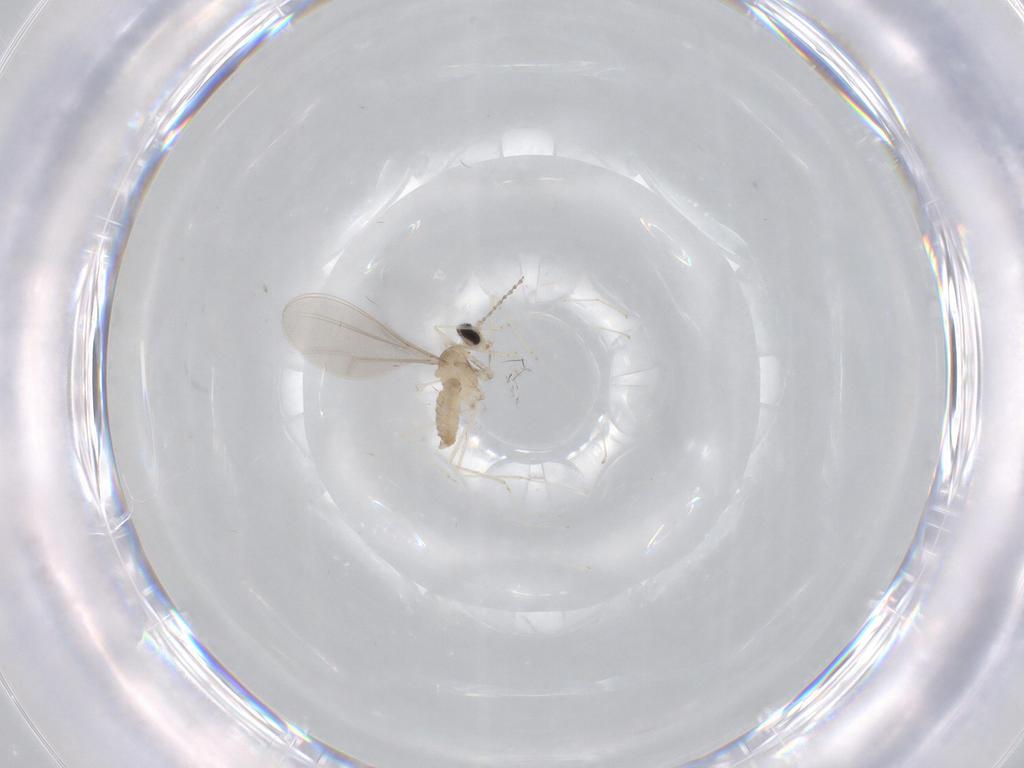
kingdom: Animalia
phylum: Arthropoda
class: Insecta
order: Diptera
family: Cecidomyiidae
